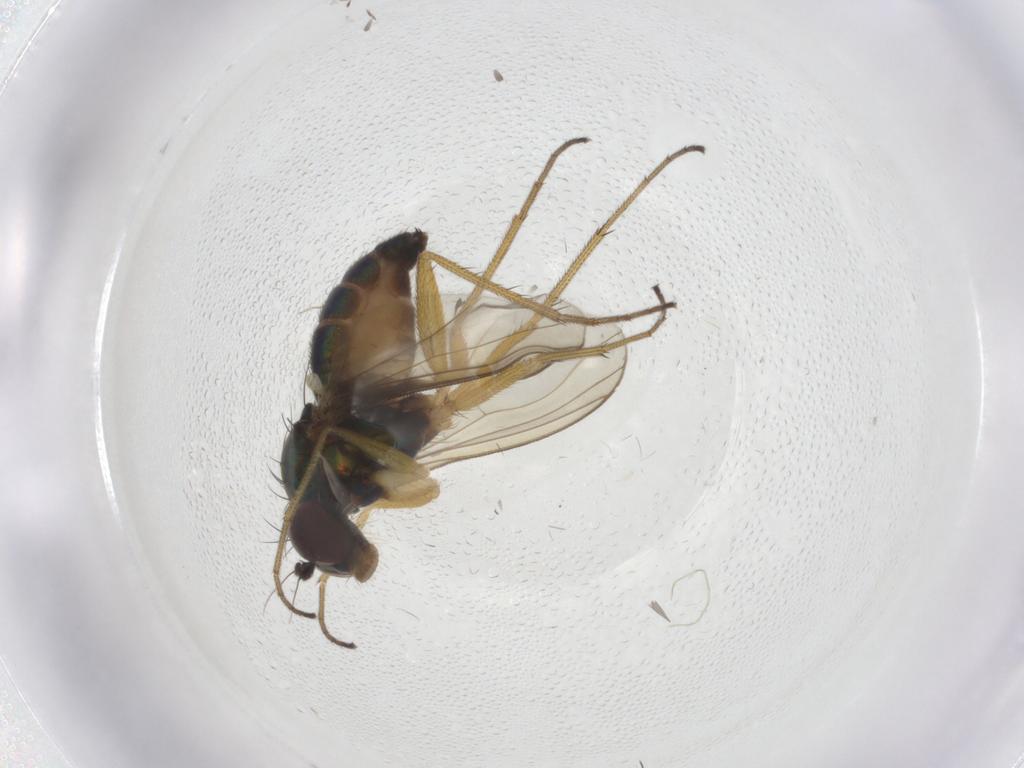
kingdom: Animalia
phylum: Arthropoda
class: Insecta
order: Diptera
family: Dolichopodidae
